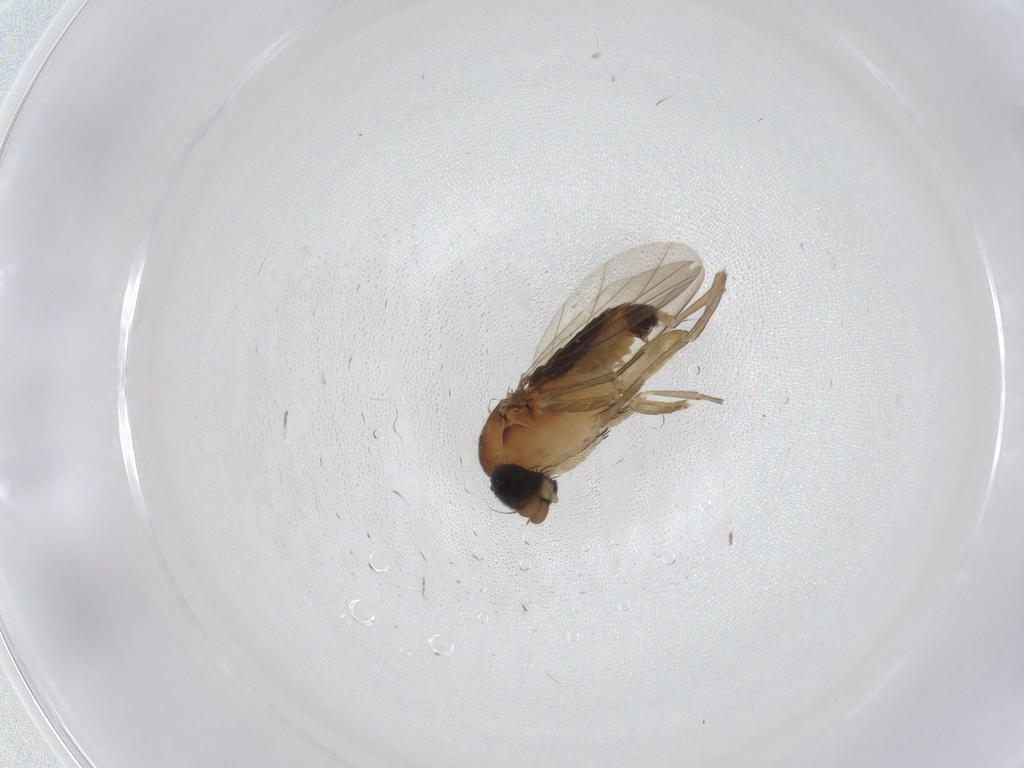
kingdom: Animalia
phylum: Arthropoda
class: Insecta
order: Diptera
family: Phoridae
